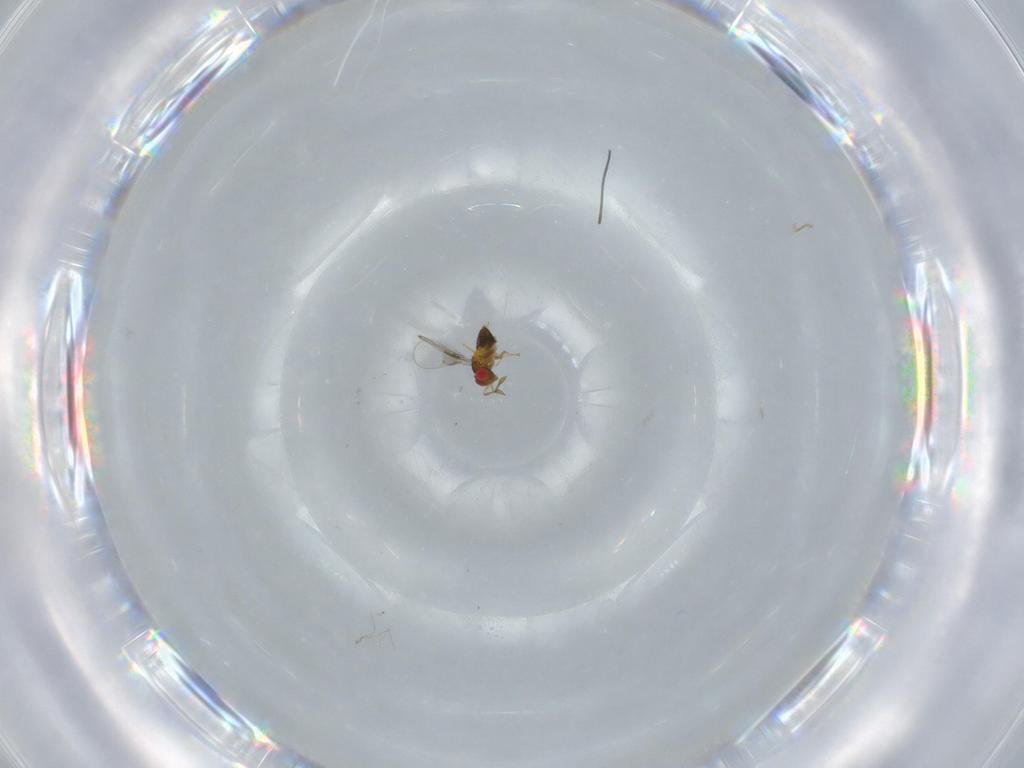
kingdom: Animalia
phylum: Arthropoda
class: Insecta
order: Hymenoptera
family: Trichogrammatidae
